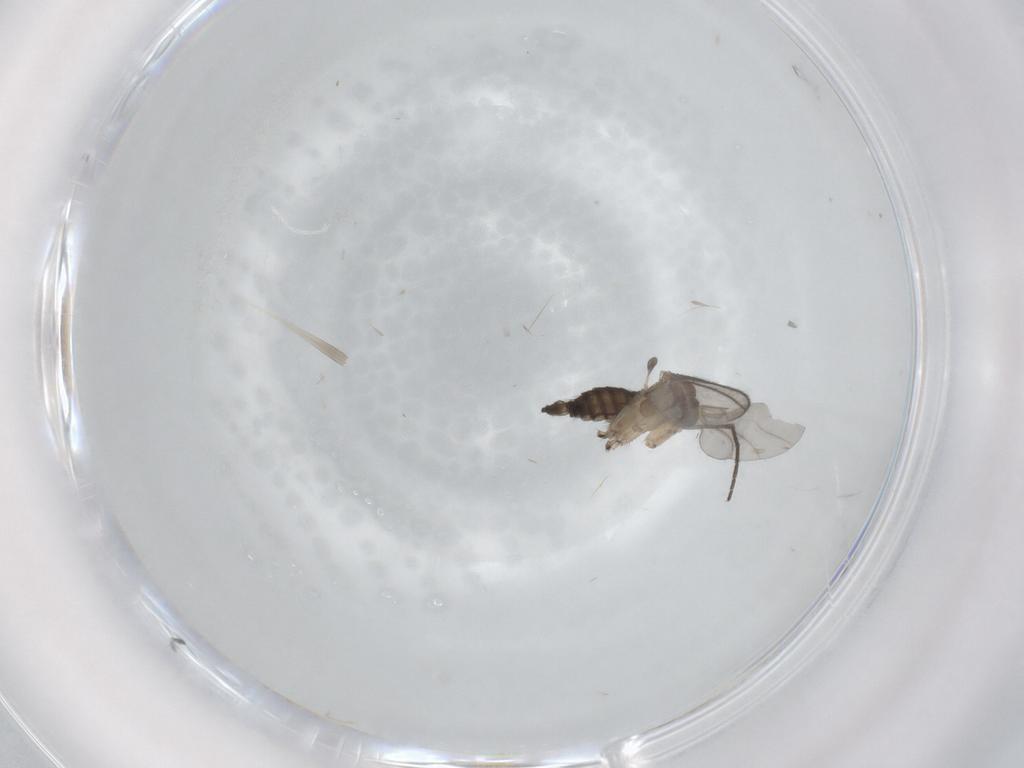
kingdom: Animalia
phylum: Arthropoda
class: Insecta
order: Diptera
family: Sciaridae
